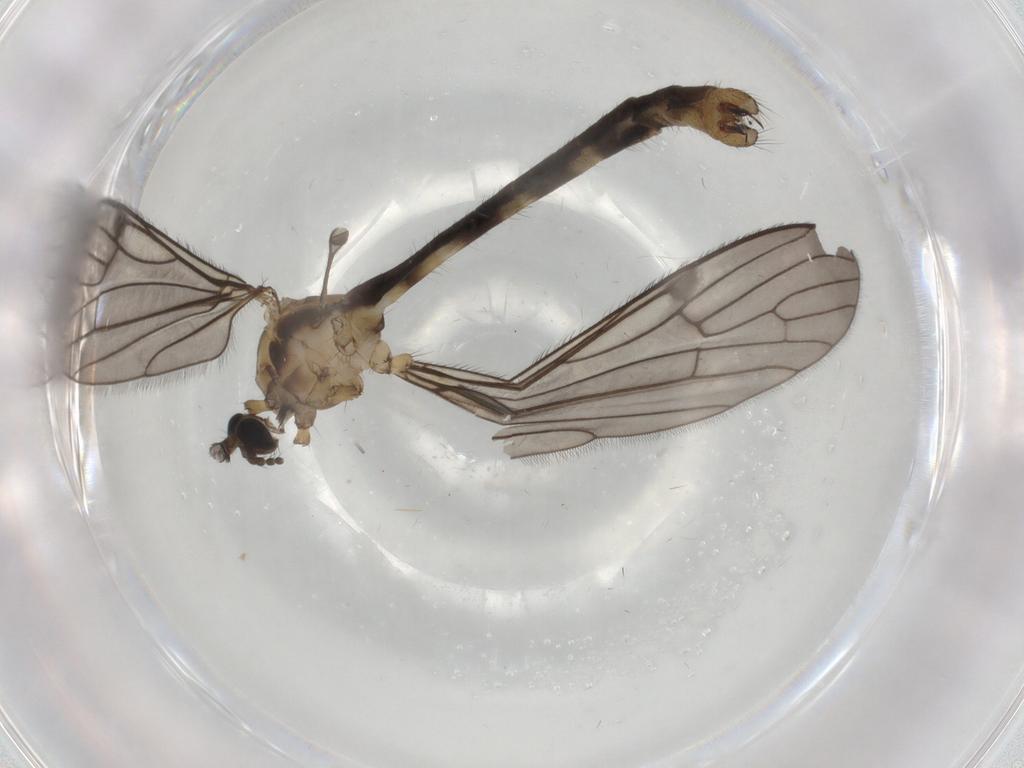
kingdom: Animalia
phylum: Arthropoda
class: Insecta
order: Diptera
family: Limoniidae
